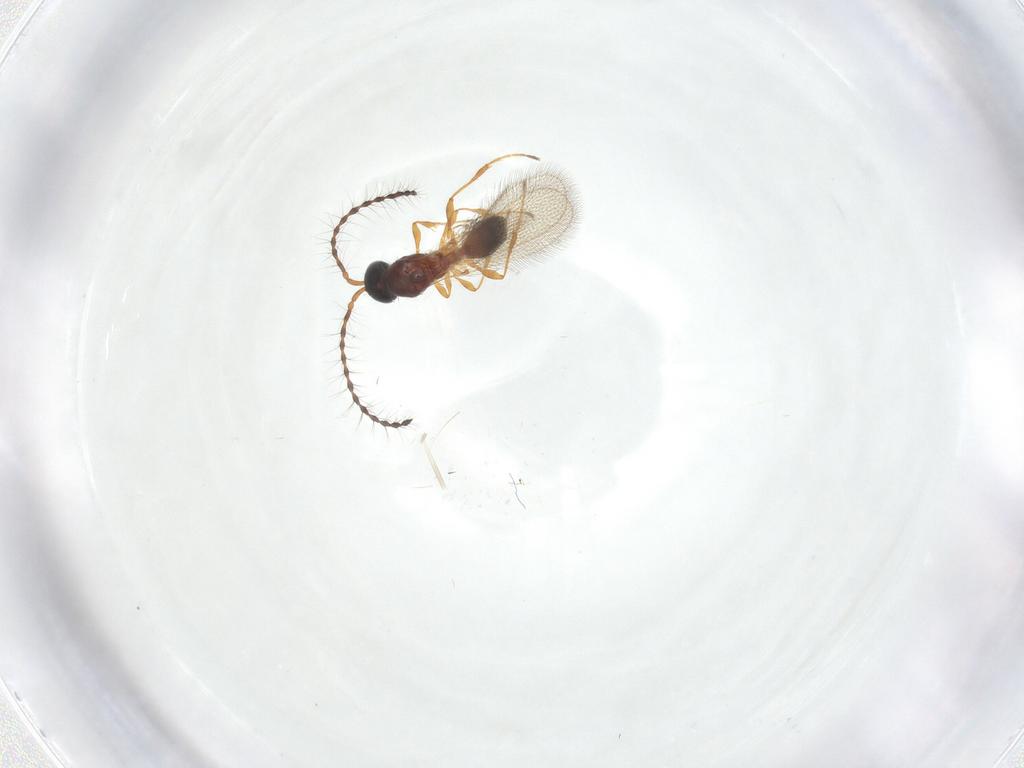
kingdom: Animalia
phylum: Arthropoda
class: Insecta
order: Hymenoptera
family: Diapriidae
